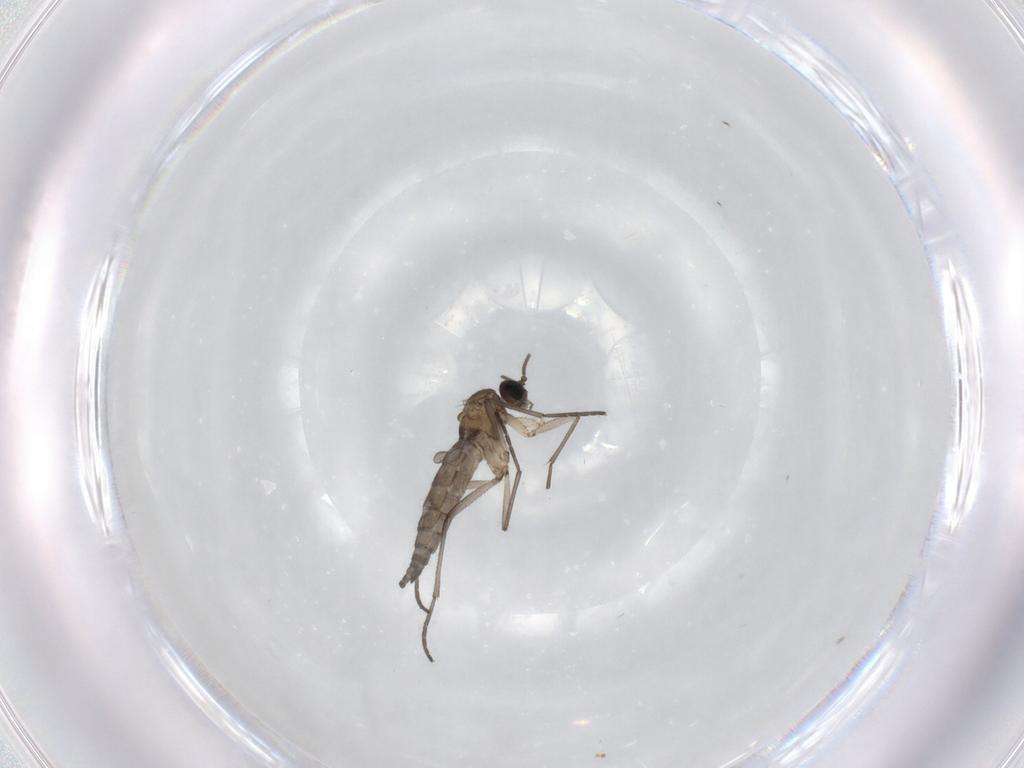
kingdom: Animalia
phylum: Arthropoda
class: Insecta
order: Diptera
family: Sciaridae
